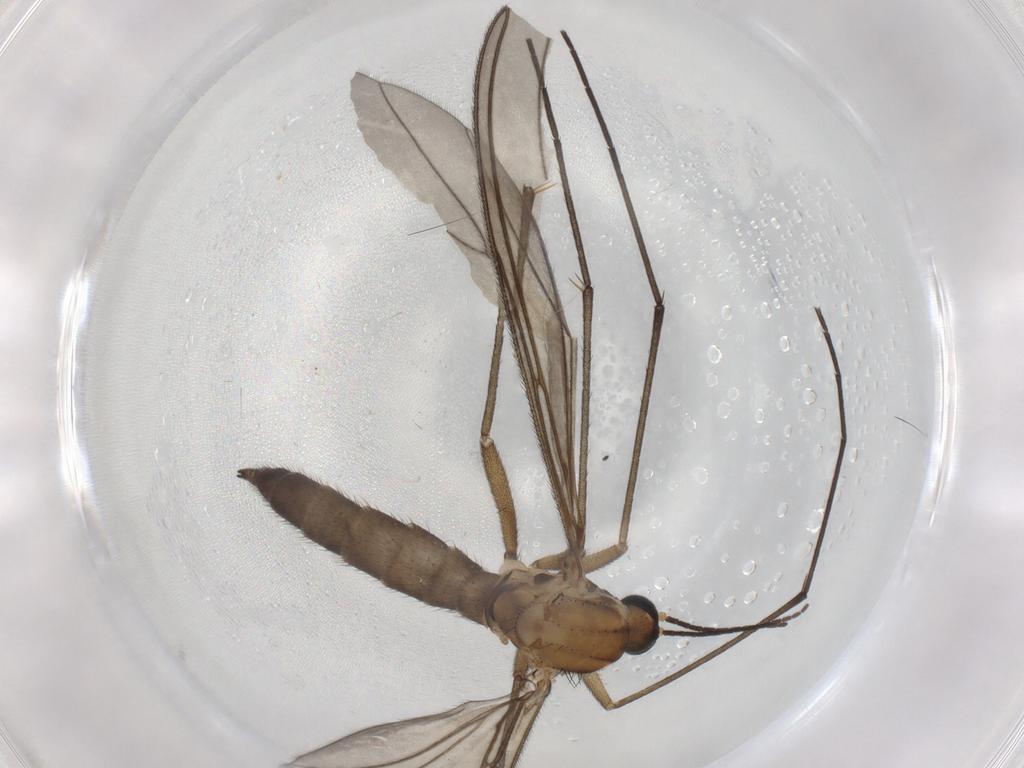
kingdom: Animalia
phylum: Arthropoda
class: Insecta
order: Diptera
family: Sciaridae
